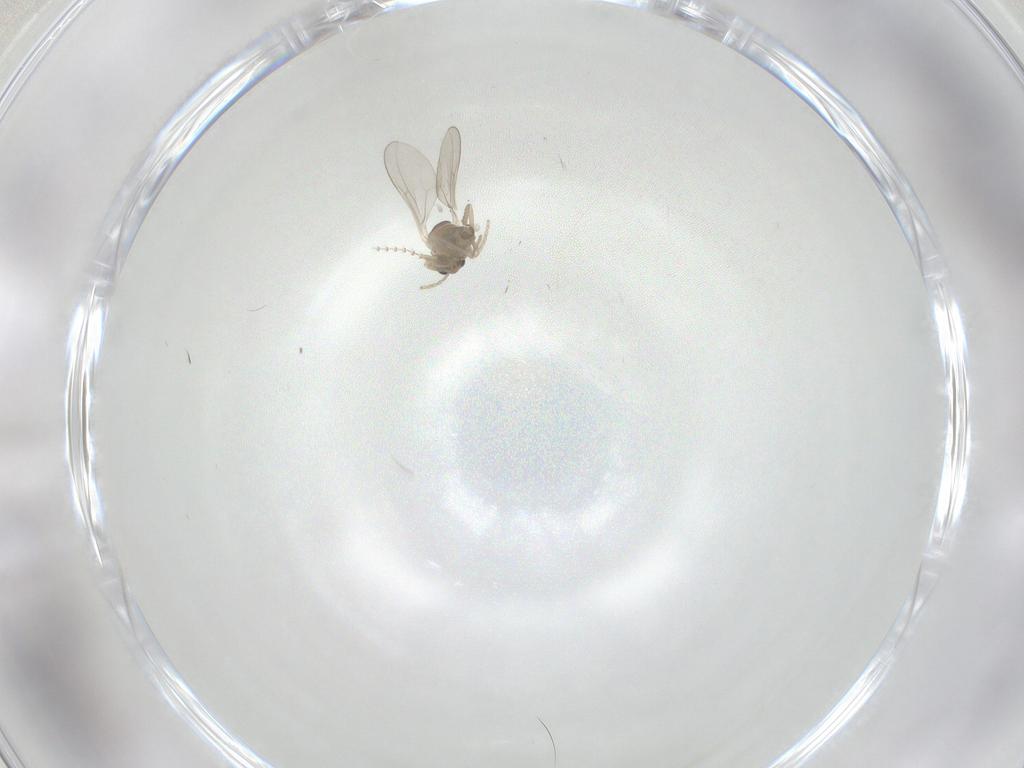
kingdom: Animalia
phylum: Arthropoda
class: Insecta
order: Diptera
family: Cecidomyiidae
